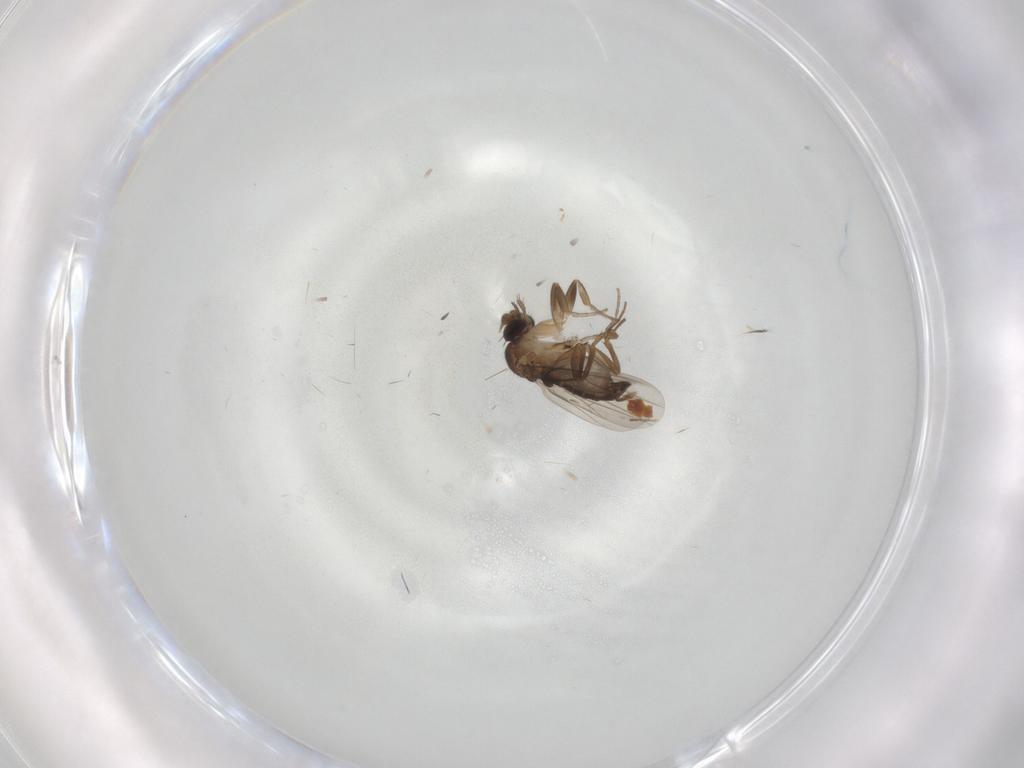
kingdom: Animalia
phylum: Arthropoda
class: Insecta
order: Diptera
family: Phoridae
